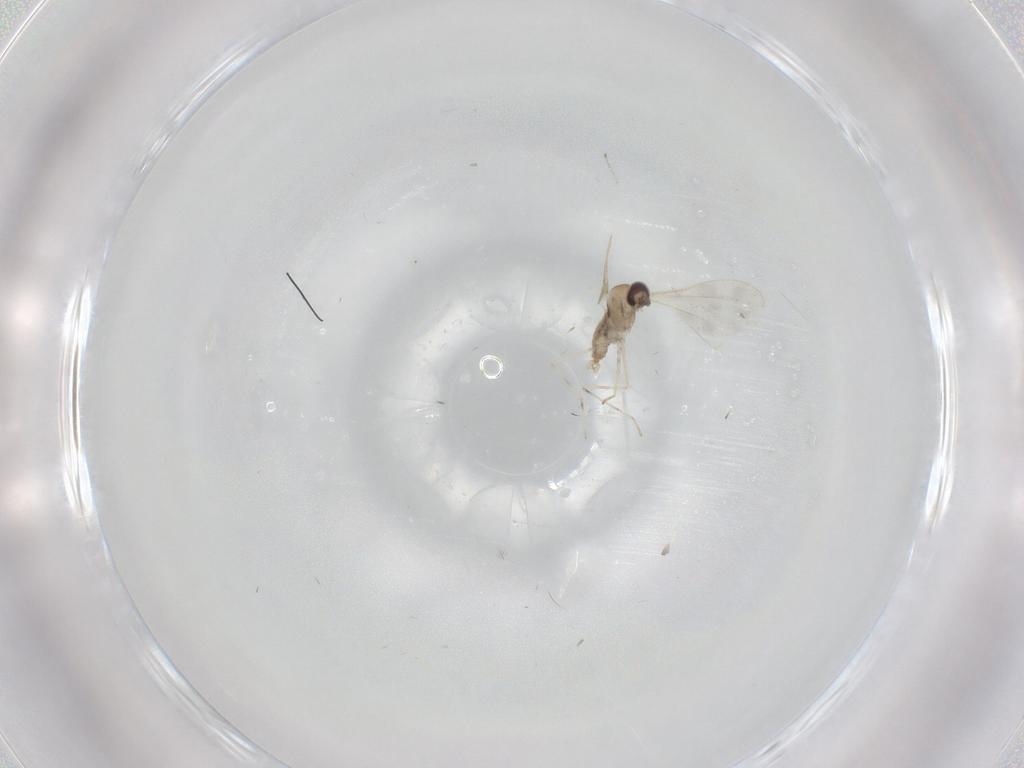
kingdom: Animalia
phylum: Arthropoda
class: Insecta
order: Diptera
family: Cecidomyiidae
